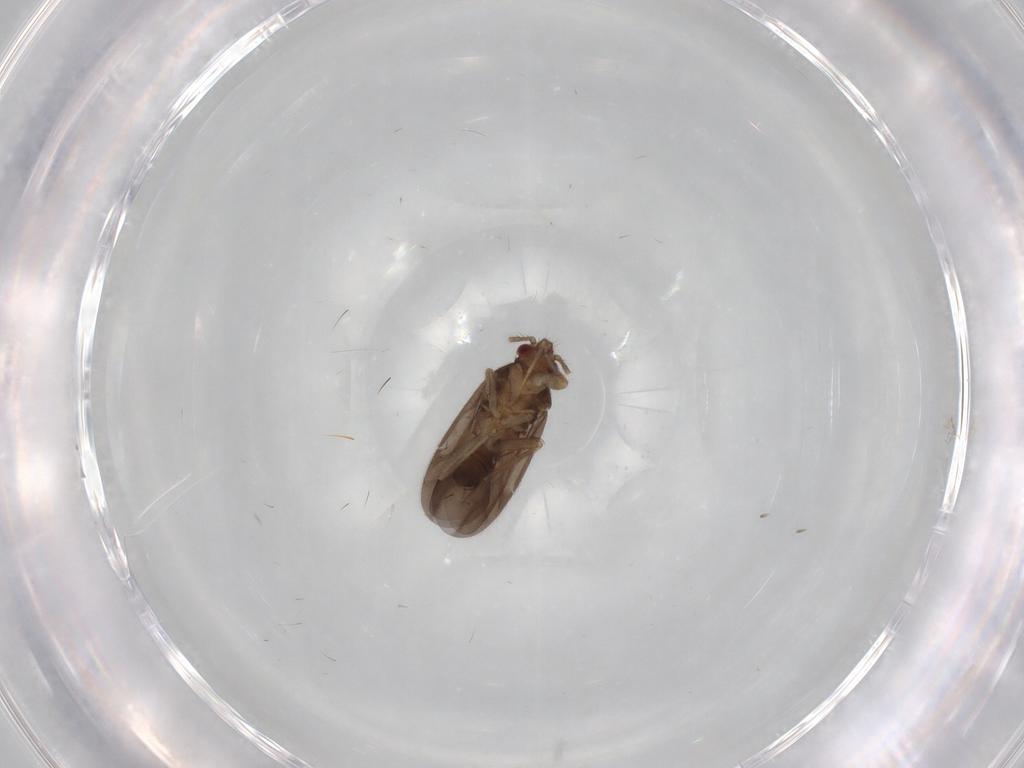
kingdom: Animalia
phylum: Arthropoda
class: Insecta
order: Hemiptera
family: Ceratocombidae
